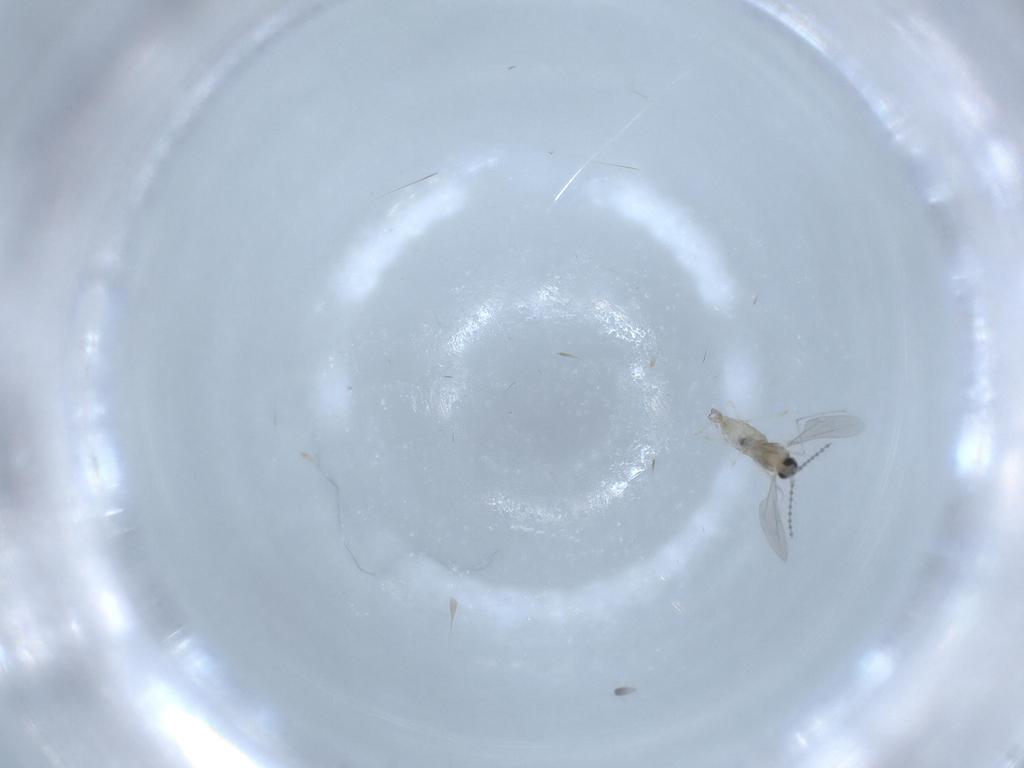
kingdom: Animalia
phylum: Arthropoda
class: Insecta
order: Diptera
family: Cecidomyiidae
